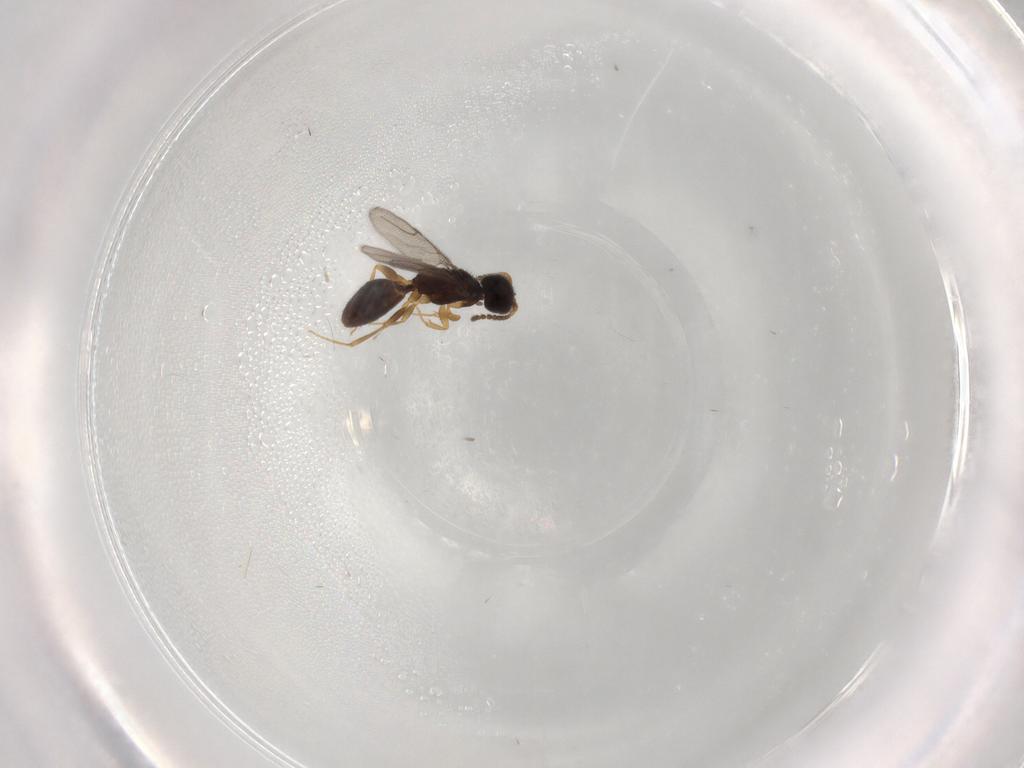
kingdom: Animalia
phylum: Arthropoda
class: Insecta
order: Hymenoptera
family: Bethylidae
